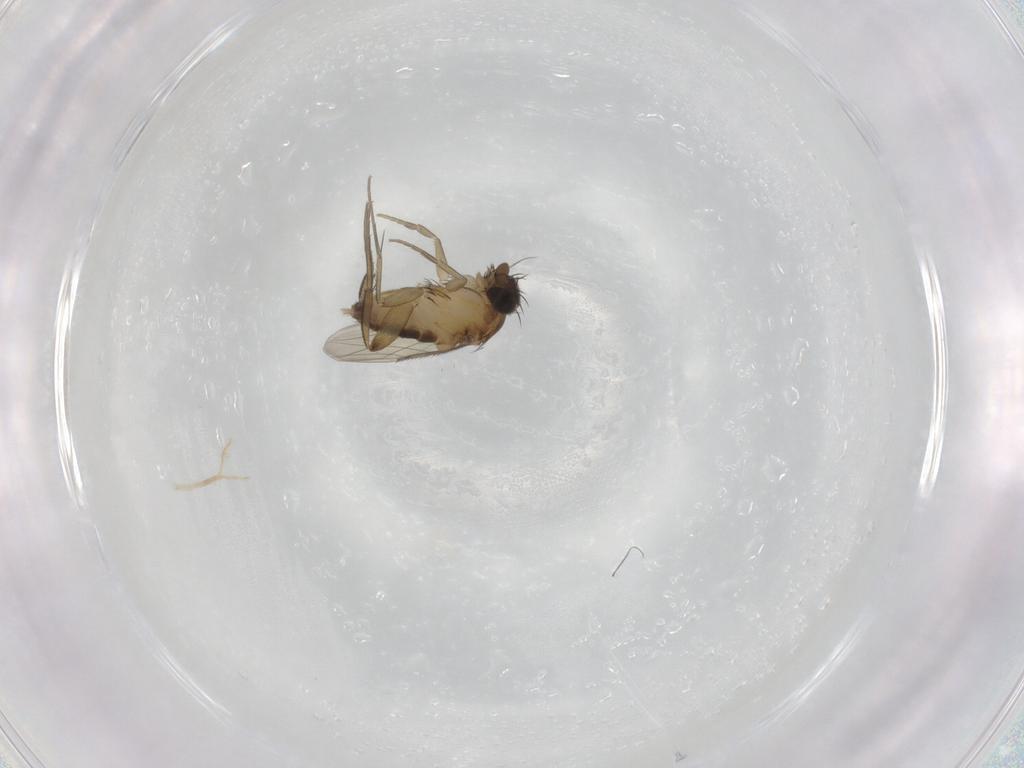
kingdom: Animalia
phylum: Arthropoda
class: Insecta
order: Diptera
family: Phoridae
